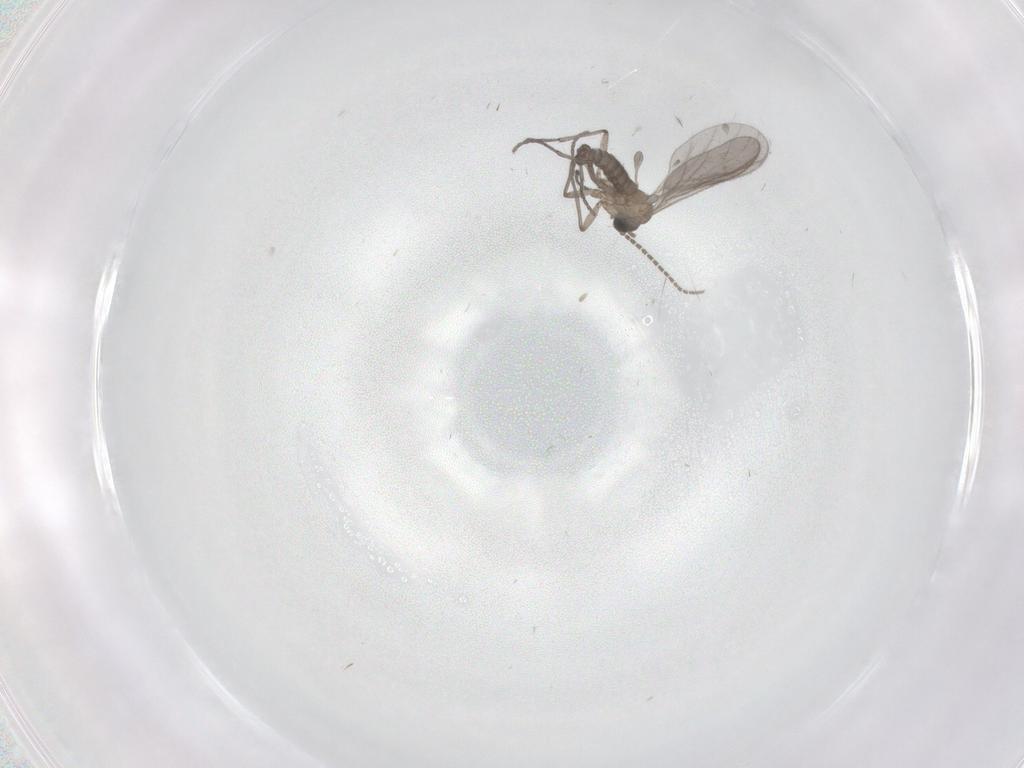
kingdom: Animalia
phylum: Arthropoda
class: Insecta
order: Diptera
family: Sciaridae
